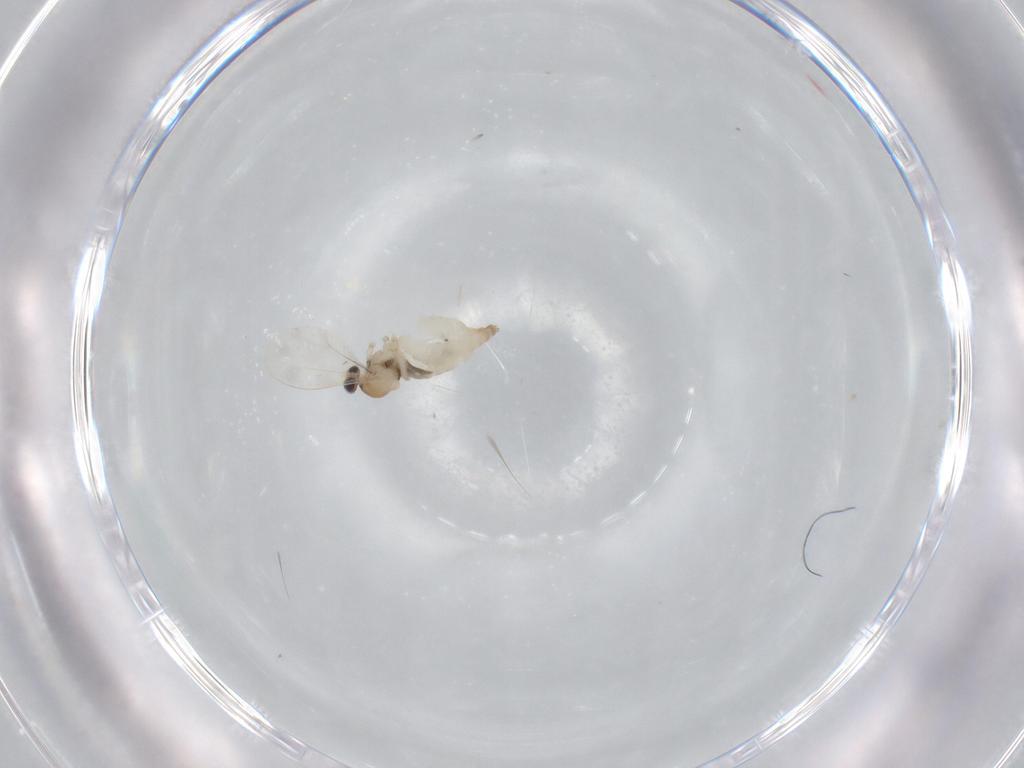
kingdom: Animalia
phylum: Arthropoda
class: Insecta
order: Diptera
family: Cecidomyiidae
